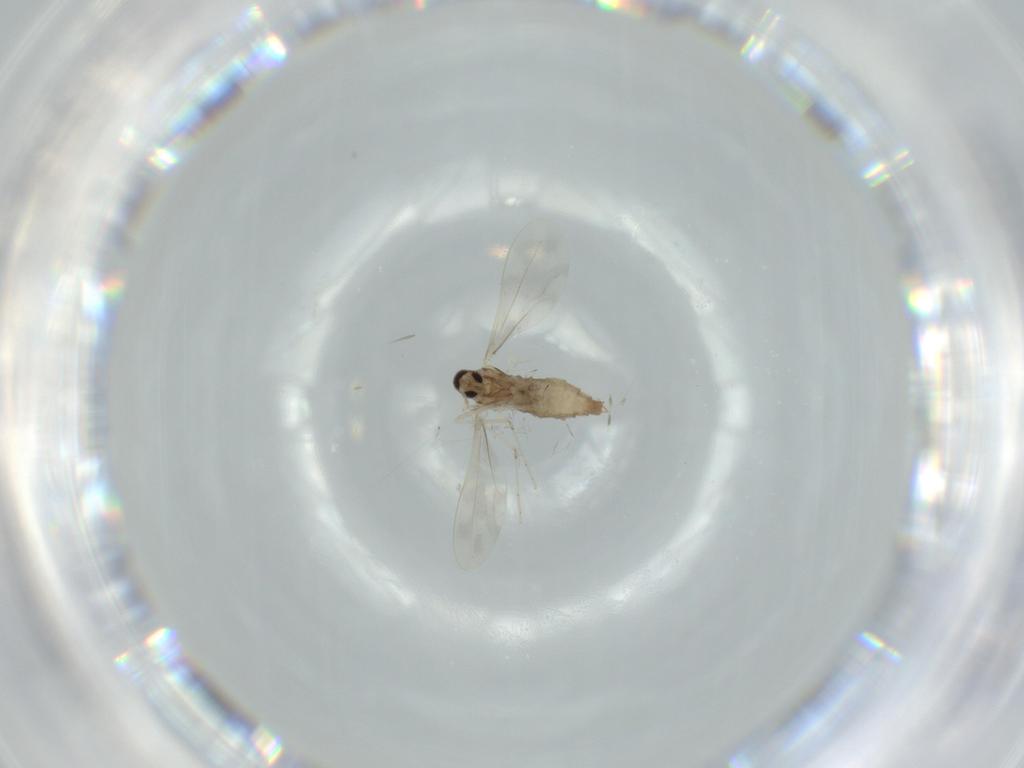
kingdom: Animalia
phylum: Arthropoda
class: Insecta
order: Diptera
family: Cecidomyiidae
